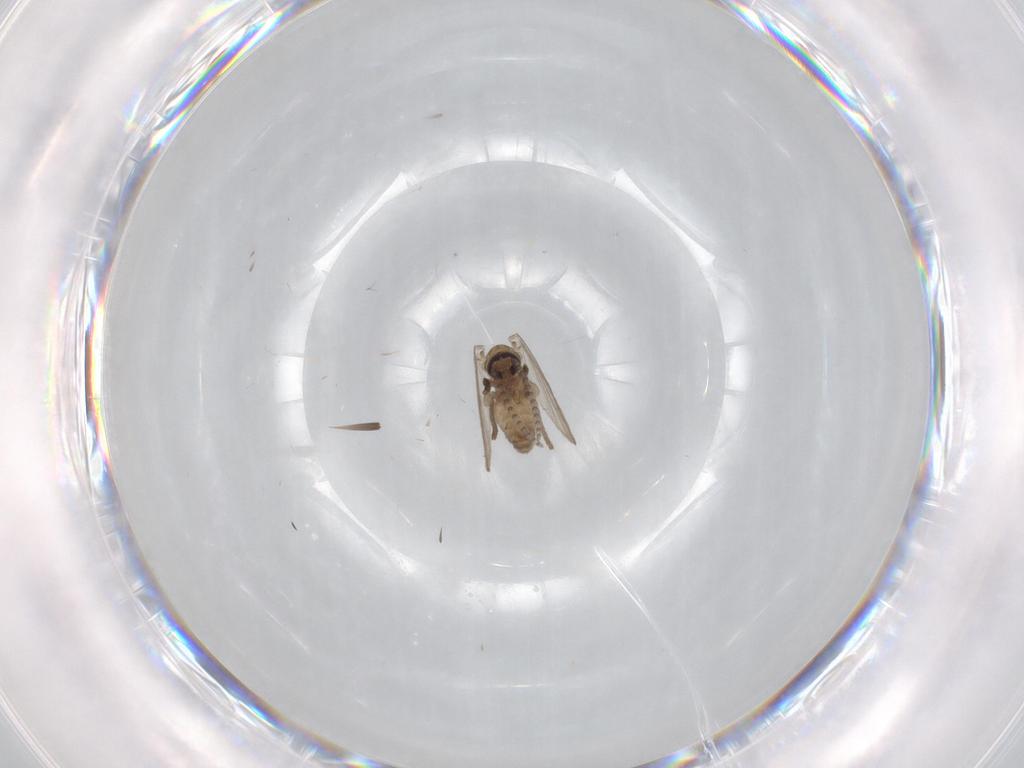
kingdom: Animalia
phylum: Arthropoda
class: Insecta
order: Diptera
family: Psychodidae
